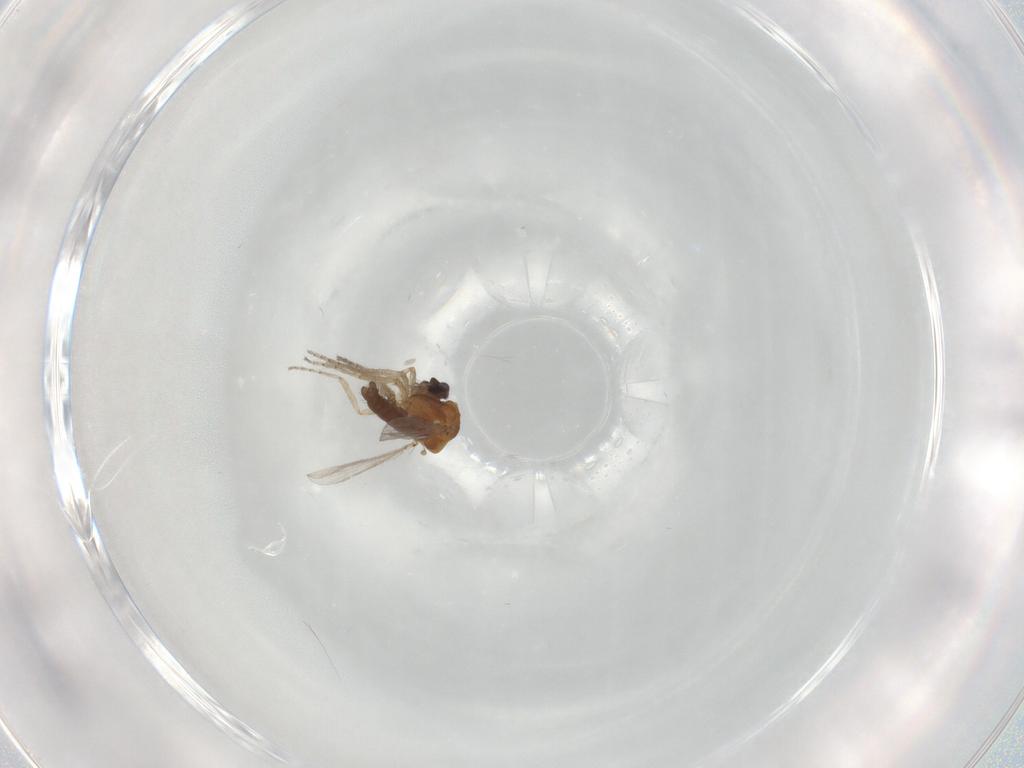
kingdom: Animalia
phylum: Arthropoda
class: Insecta
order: Diptera
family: Ceratopogonidae
